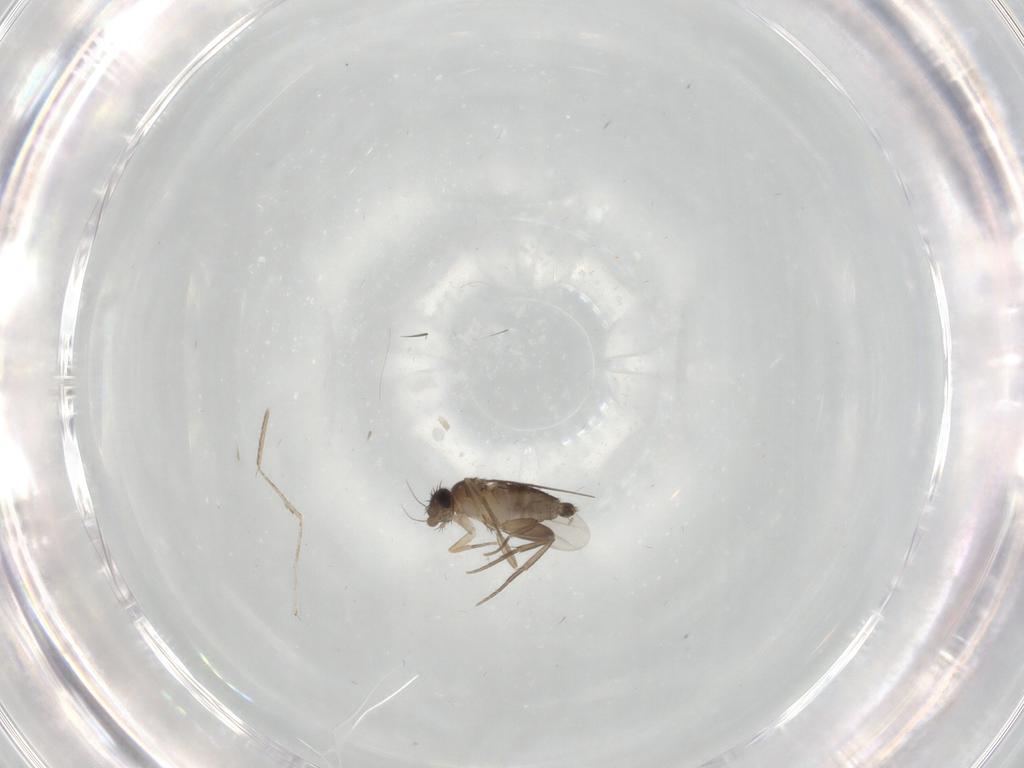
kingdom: Animalia
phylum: Arthropoda
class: Insecta
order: Diptera
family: Phoridae
